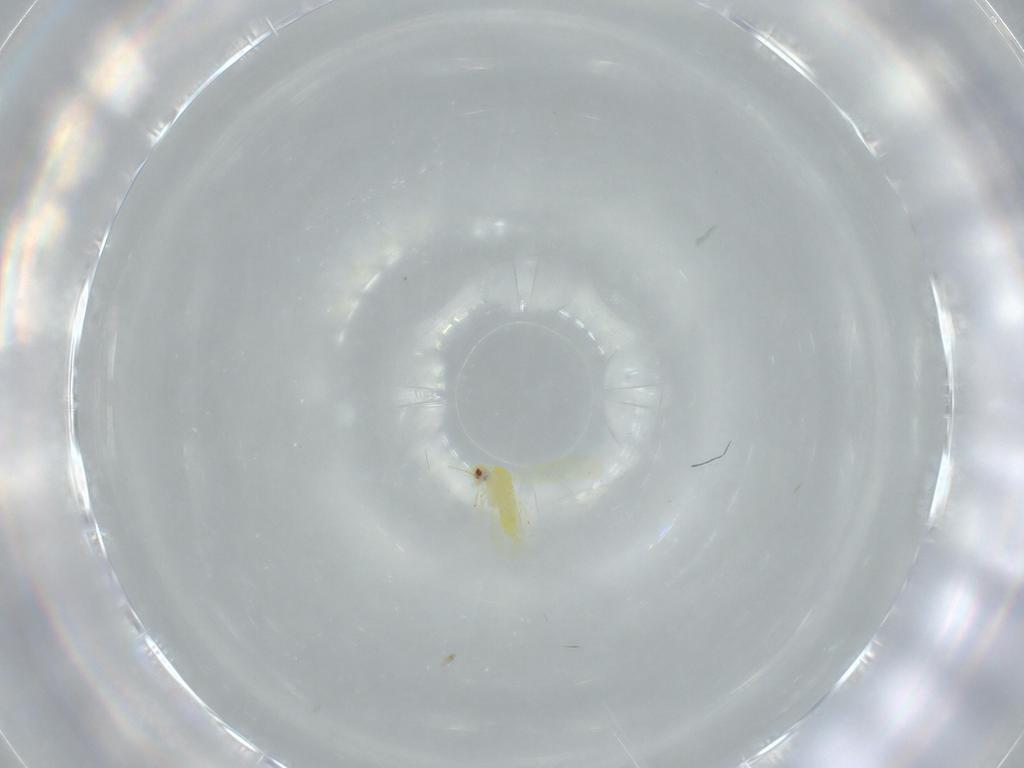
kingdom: Animalia
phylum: Arthropoda
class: Insecta
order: Hemiptera
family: Aleyrodidae
